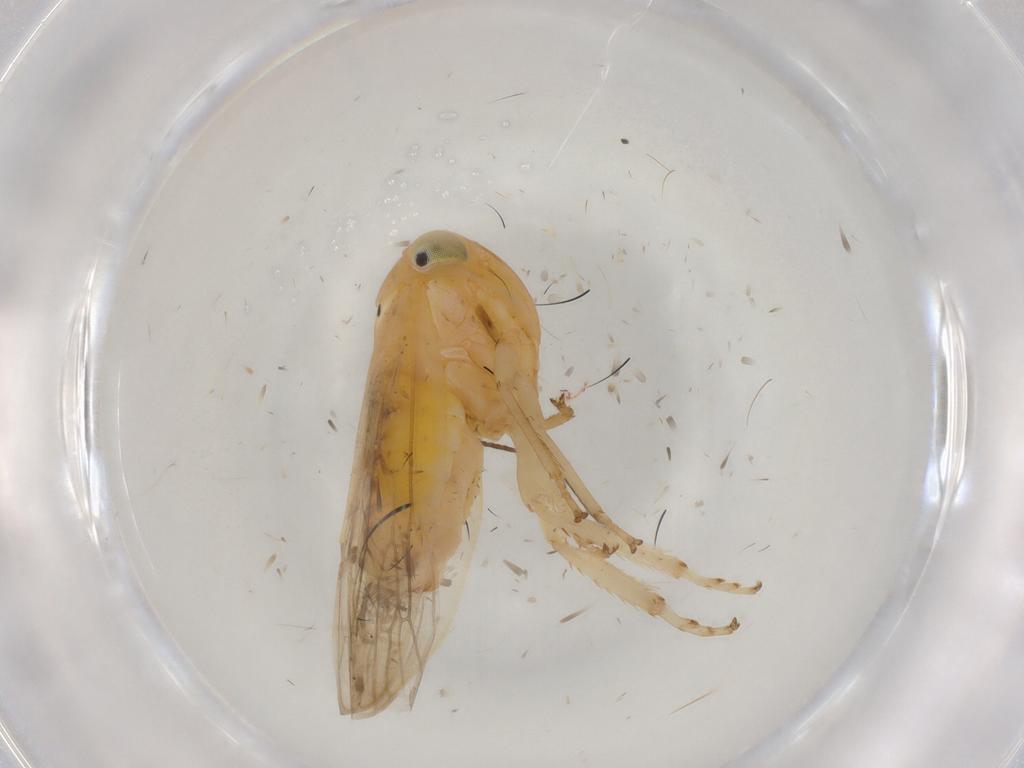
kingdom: Animalia
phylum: Arthropoda
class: Insecta
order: Hemiptera
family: Cicadellidae
